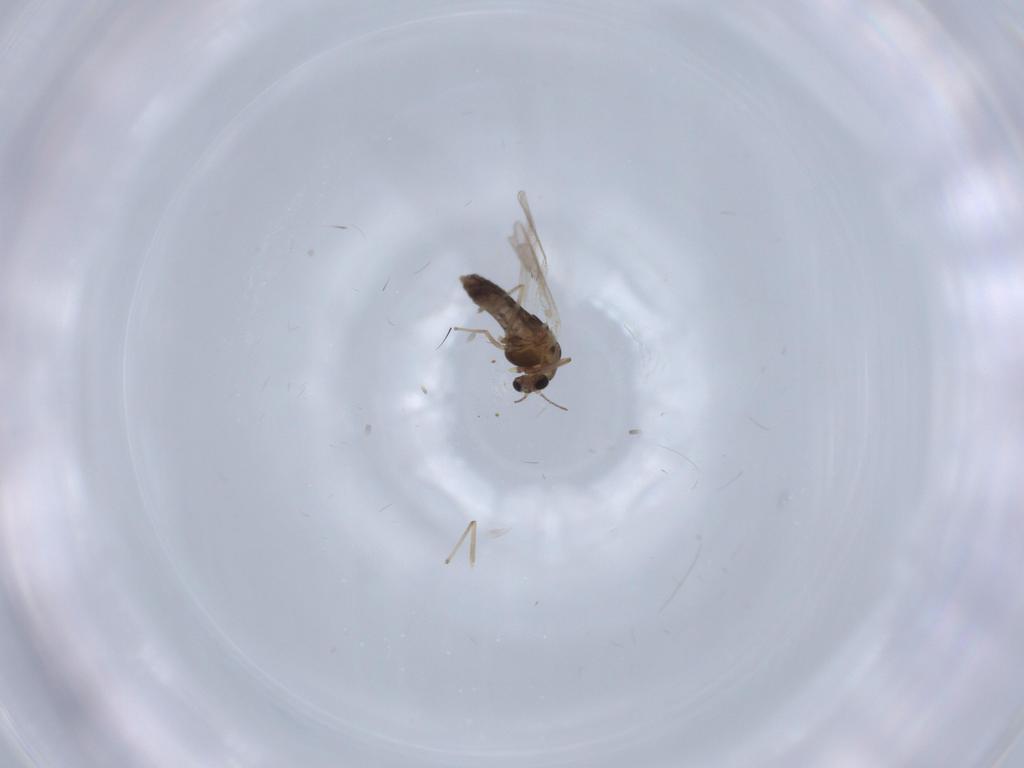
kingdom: Animalia
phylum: Arthropoda
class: Insecta
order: Diptera
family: Chironomidae
